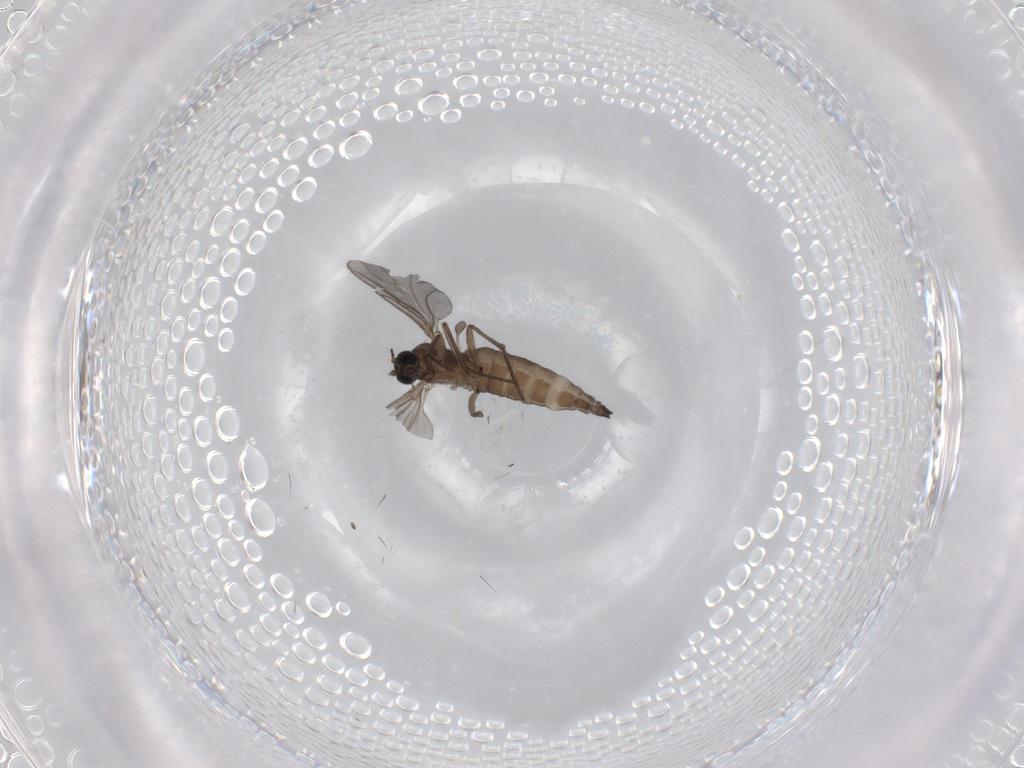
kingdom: Animalia
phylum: Arthropoda
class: Insecta
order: Diptera
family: Sciaridae
